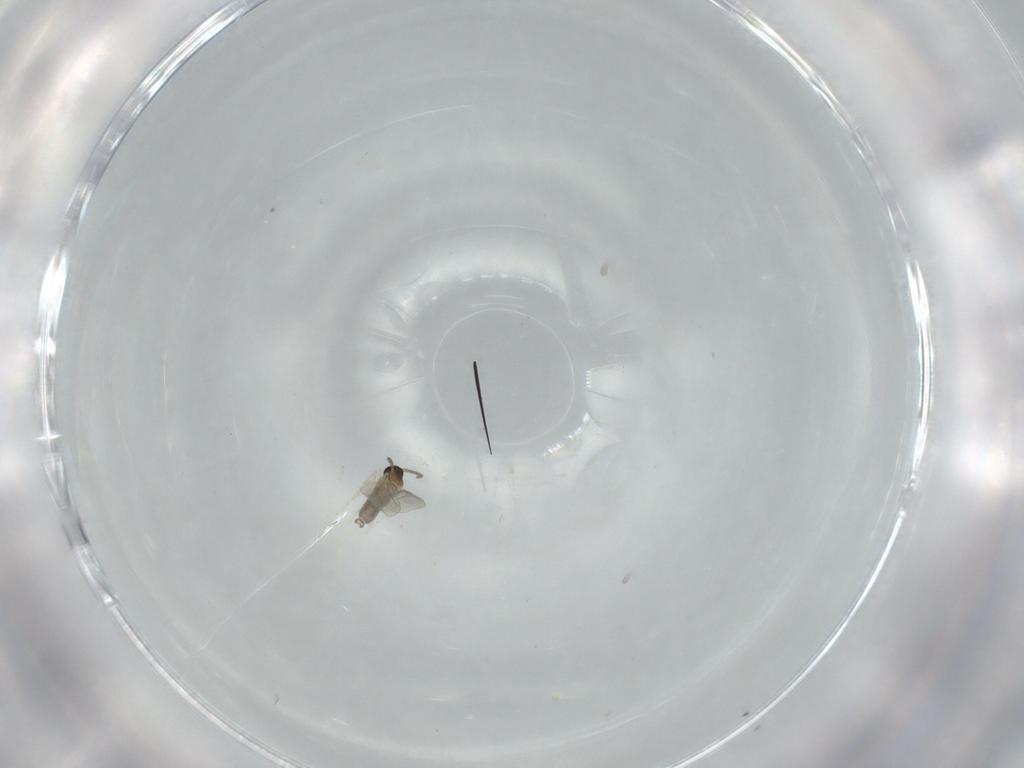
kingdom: Animalia
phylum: Arthropoda
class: Insecta
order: Diptera
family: Cecidomyiidae
